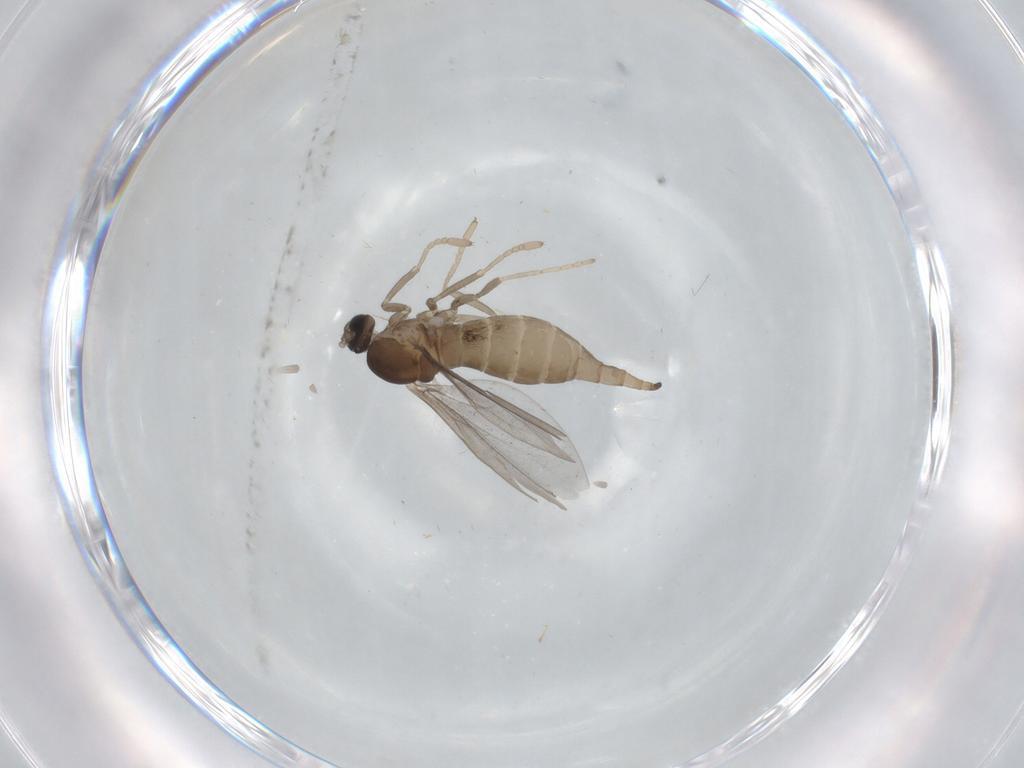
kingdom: Animalia
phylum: Arthropoda
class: Insecta
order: Diptera
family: Cecidomyiidae
